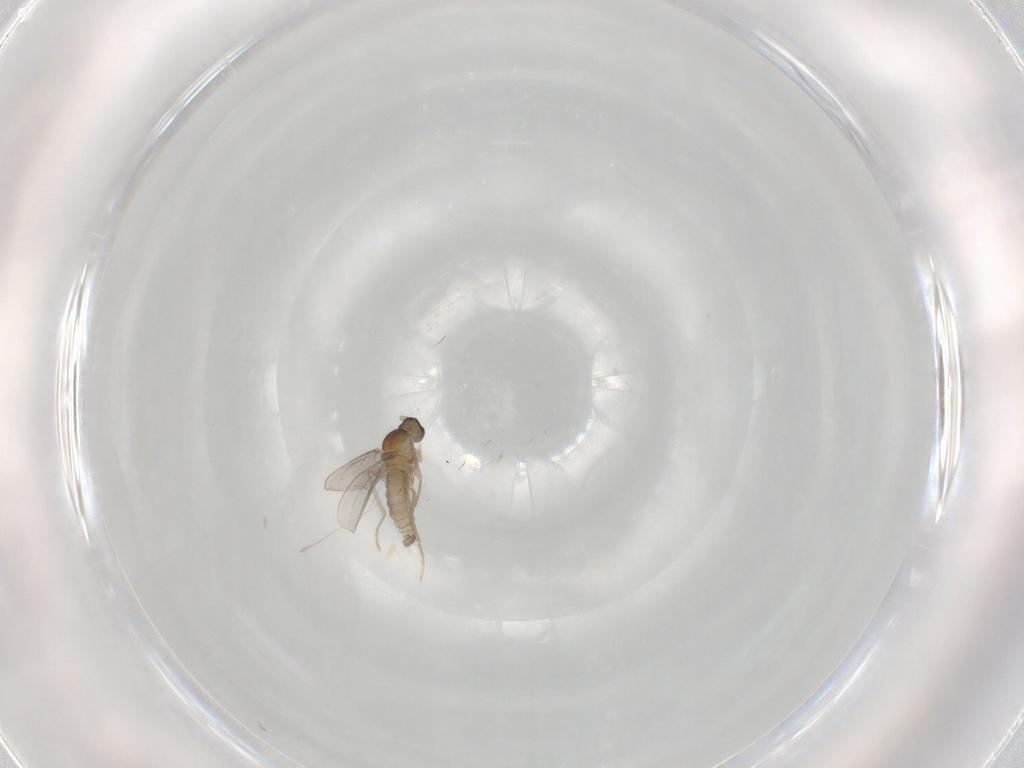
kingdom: Animalia
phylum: Arthropoda
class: Insecta
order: Diptera
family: Cecidomyiidae
